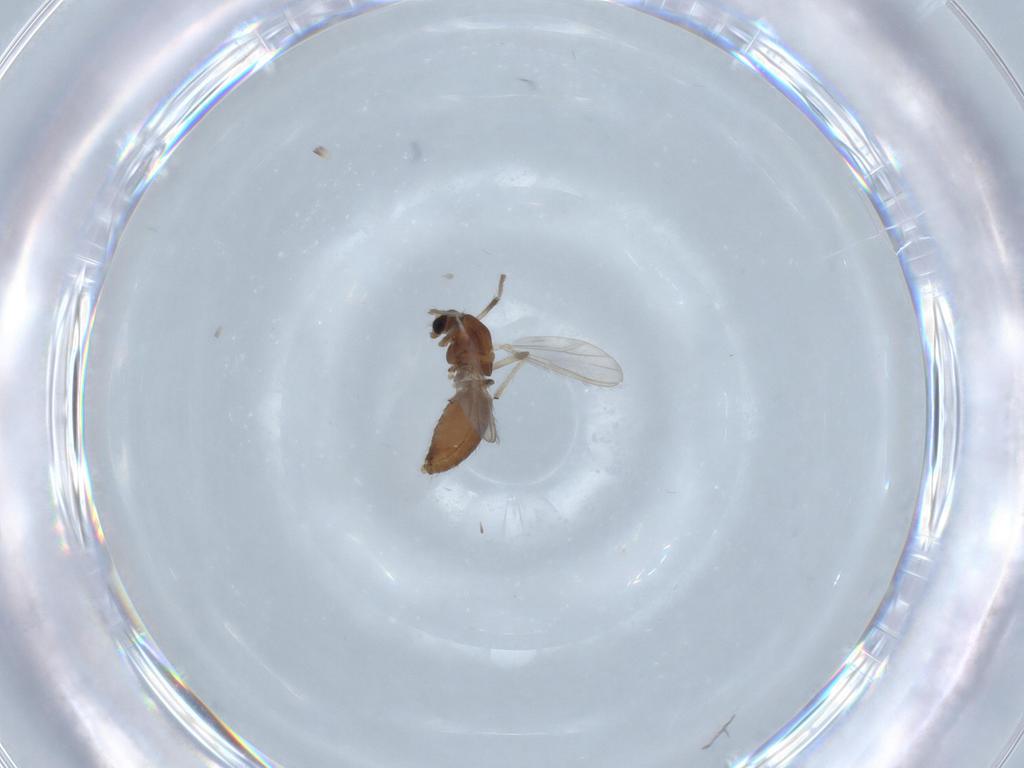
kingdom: Animalia
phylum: Arthropoda
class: Insecta
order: Diptera
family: Chironomidae
